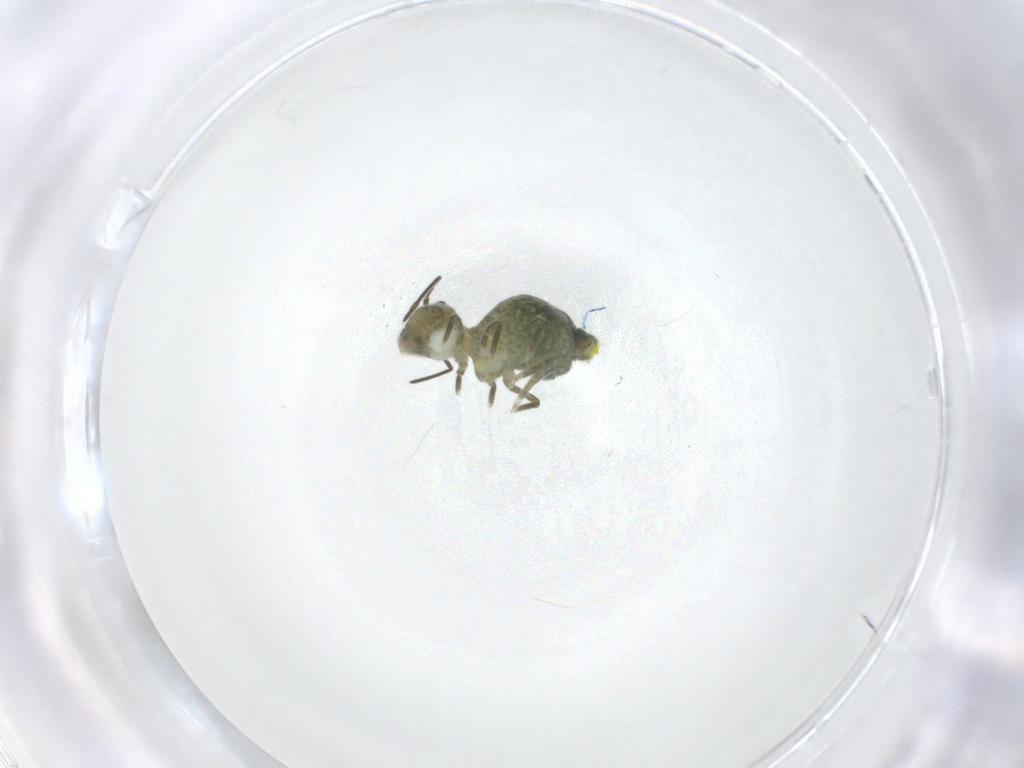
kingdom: Animalia
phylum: Arthropoda
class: Collembola
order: Symphypleona
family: Sminthuridae
